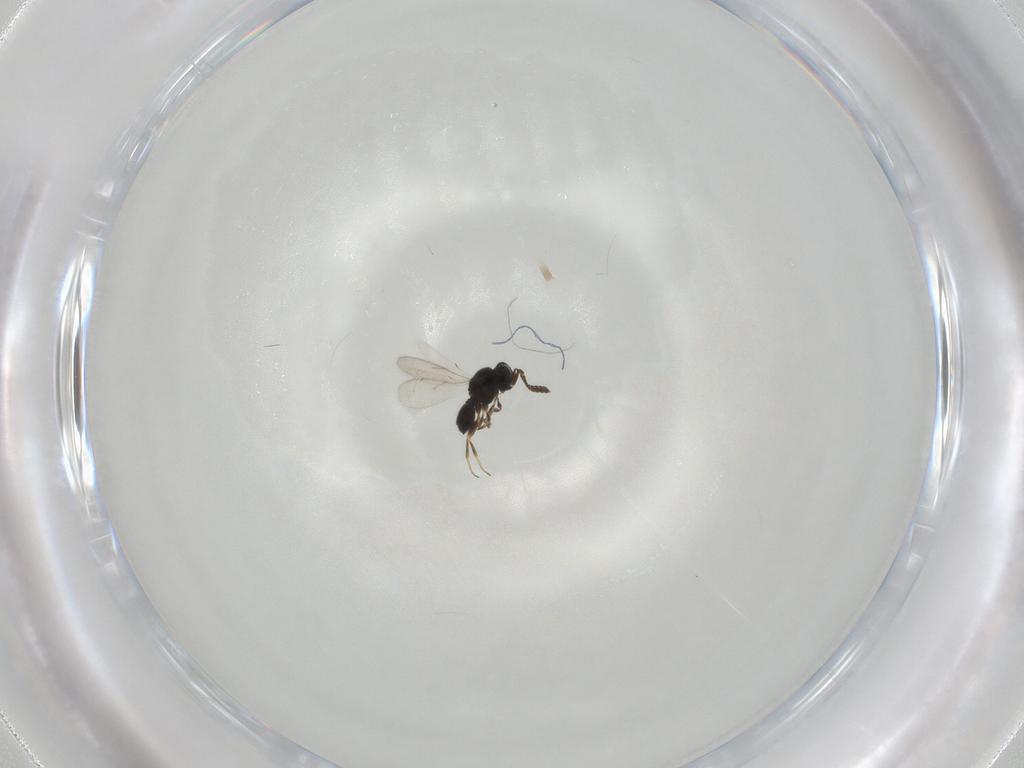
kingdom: Animalia
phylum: Arthropoda
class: Insecta
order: Hymenoptera
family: Scelionidae
